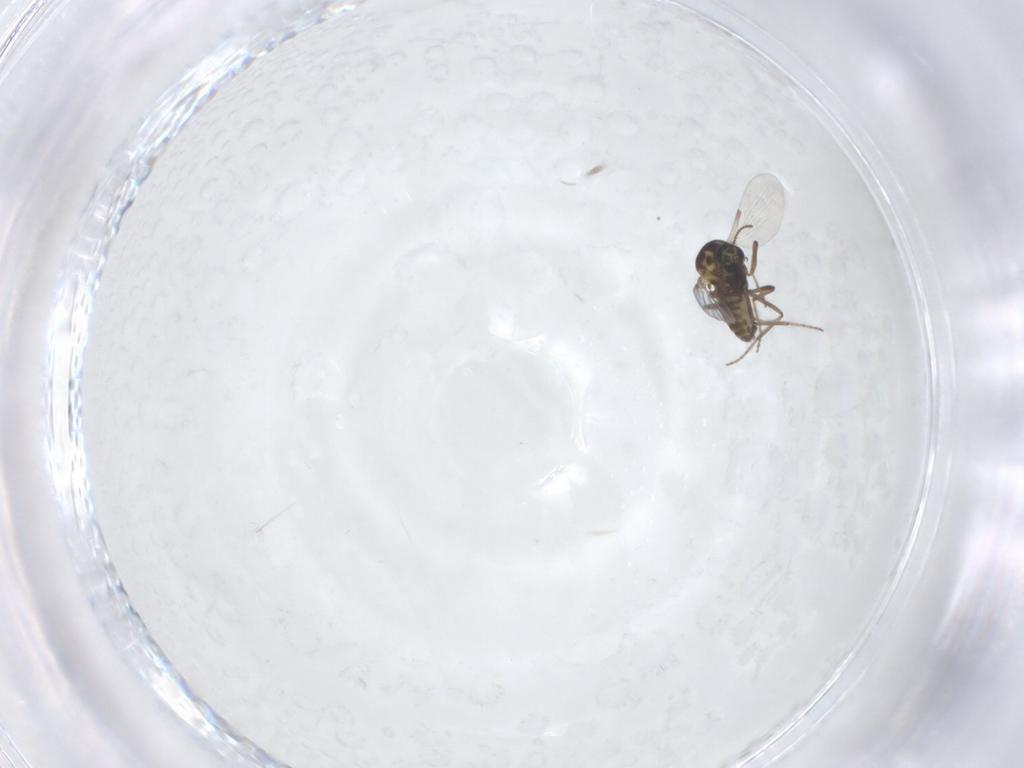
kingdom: Animalia
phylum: Arthropoda
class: Insecta
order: Diptera
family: Ceratopogonidae
